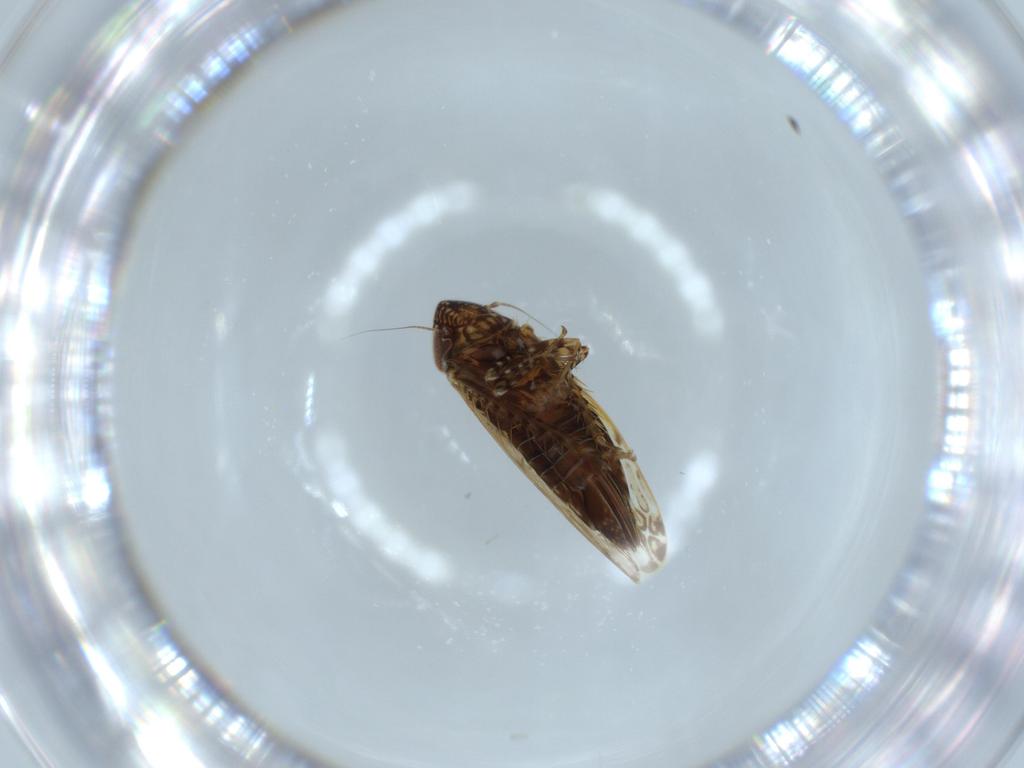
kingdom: Animalia
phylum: Arthropoda
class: Insecta
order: Hemiptera
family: Cicadellidae
